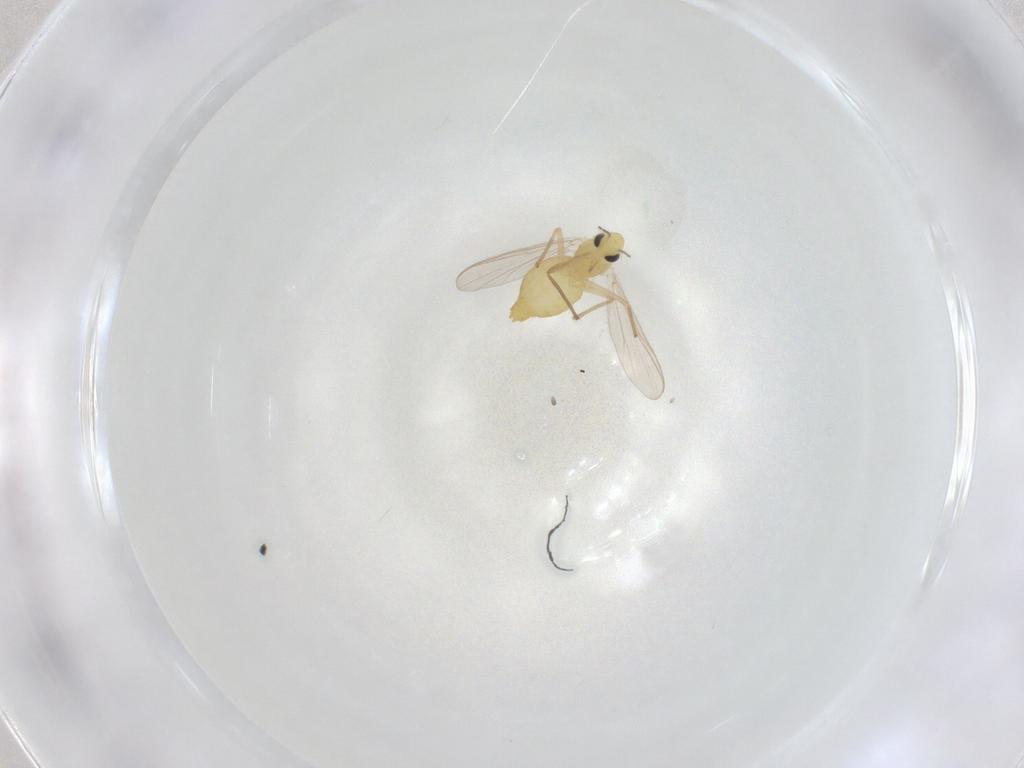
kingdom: Animalia
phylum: Arthropoda
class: Insecta
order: Diptera
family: Chironomidae
